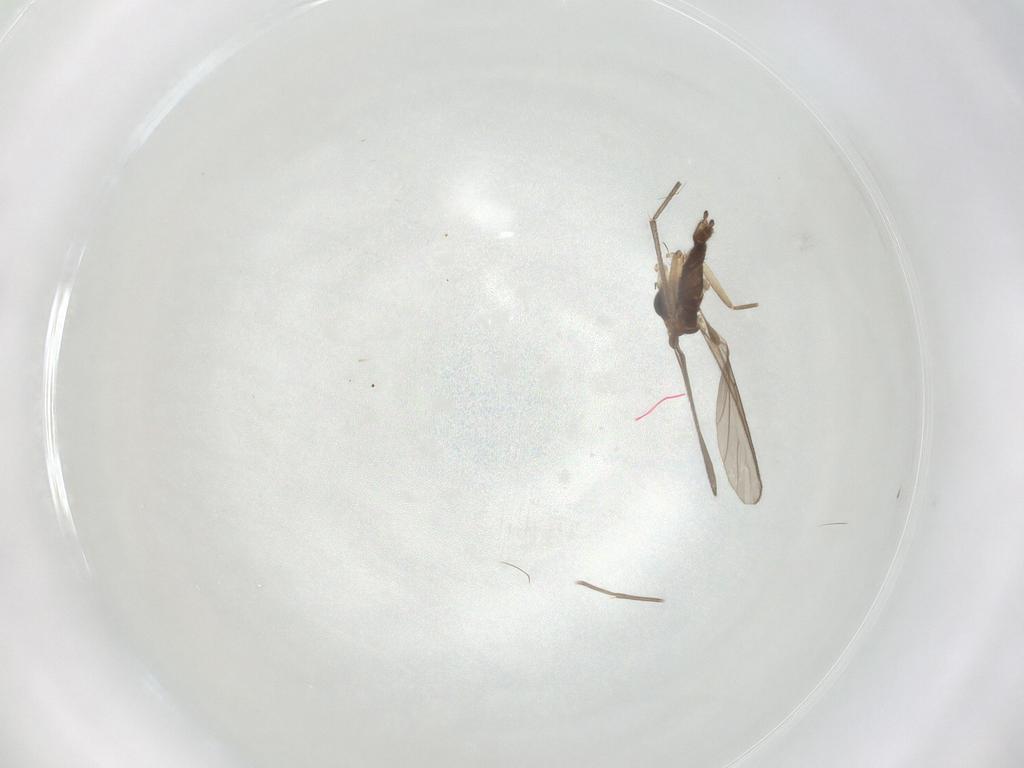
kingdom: Animalia
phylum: Arthropoda
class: Insecta
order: Diptera
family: Sciaridae
